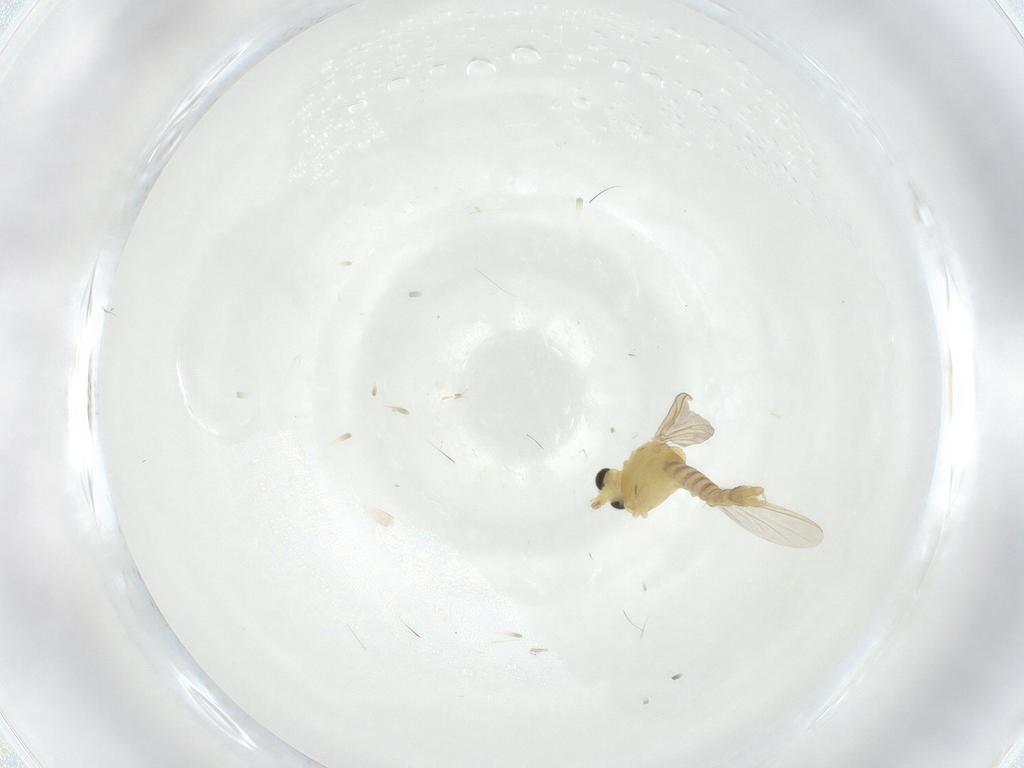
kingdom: Animalia
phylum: Arthropoda
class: Insecta
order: Diptera
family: Chironomidae
